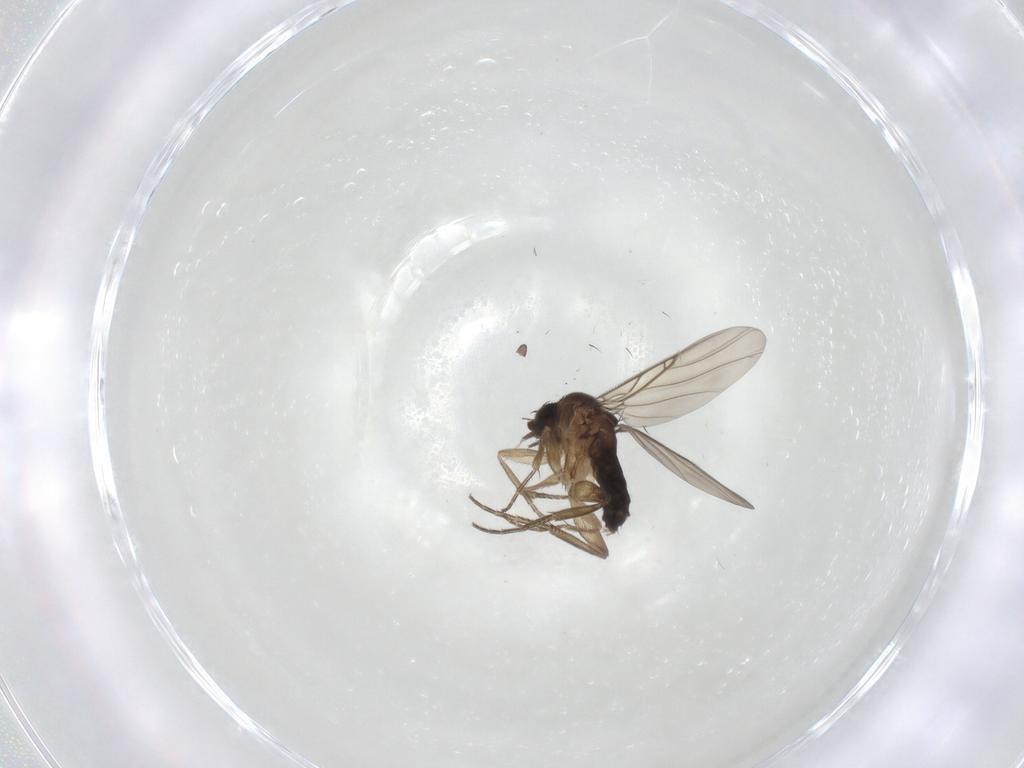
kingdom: Animalia
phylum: Arthropoda
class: Insecta
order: Diptera
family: Phoridae
